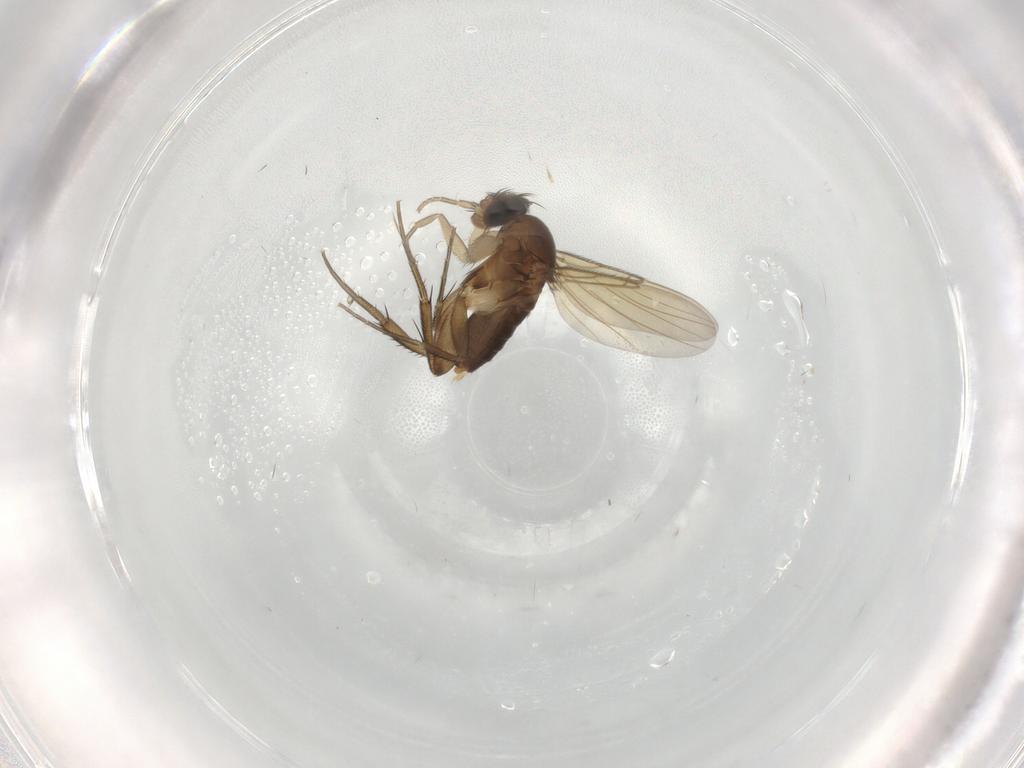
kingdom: Animalia
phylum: Arthropoda
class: Insecta
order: Diptera
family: Phoridae
